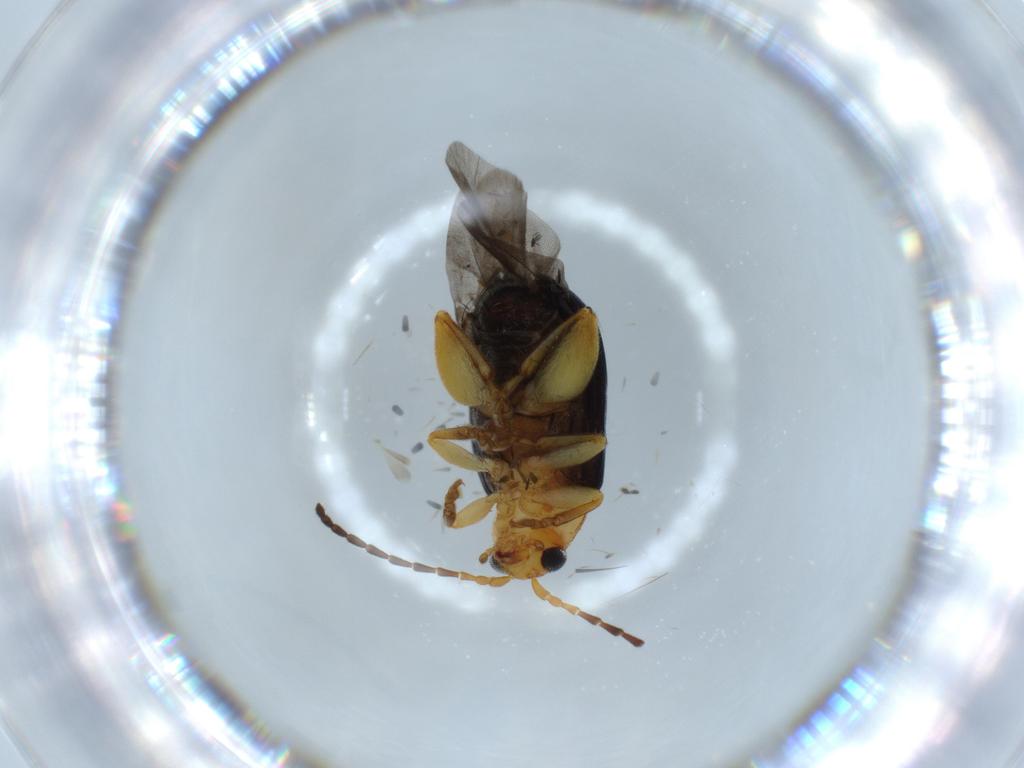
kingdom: Animalia
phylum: Arthropoda
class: Insecta
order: Coleoptera
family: Chrysomelidae
